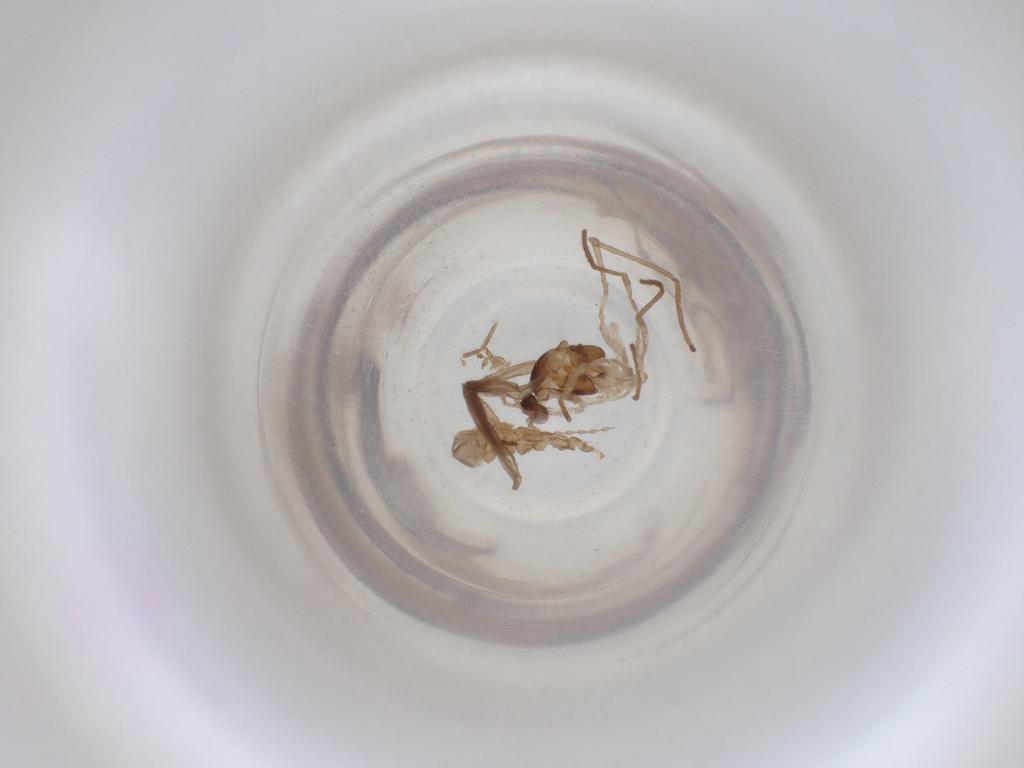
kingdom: Animalia
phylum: Arthropoda
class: Insecta
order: Diptera
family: Cecidomyiidae
